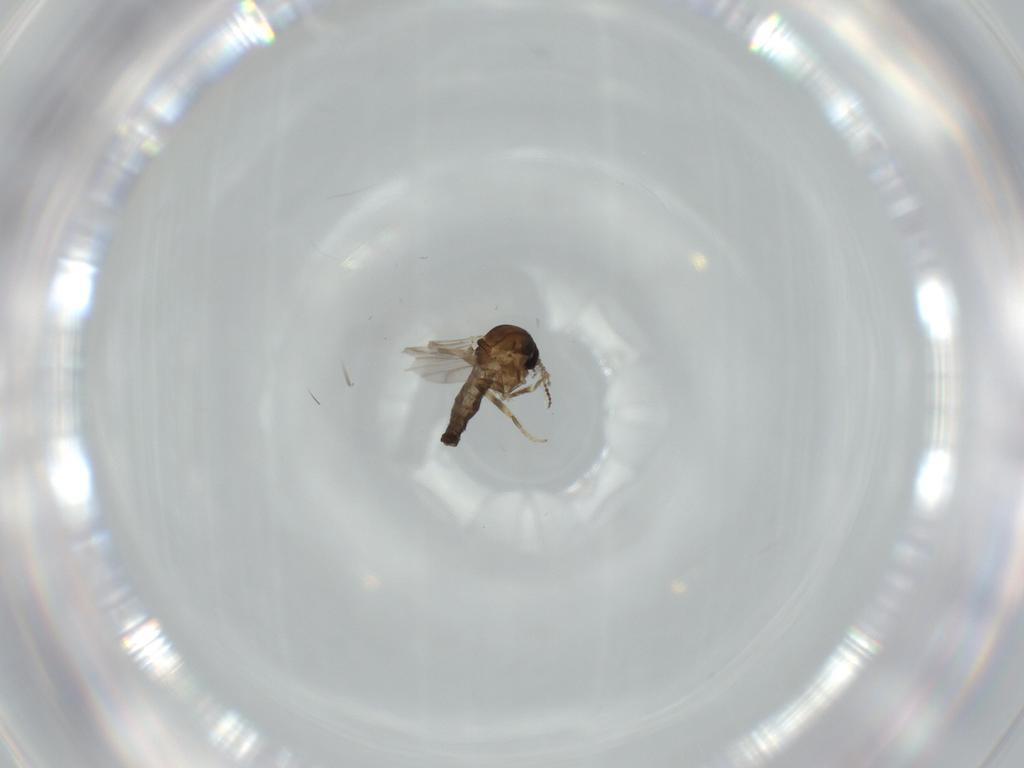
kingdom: Animalia
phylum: Arthropoda
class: Insecta
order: Diptera
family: Ceratopogonidae
